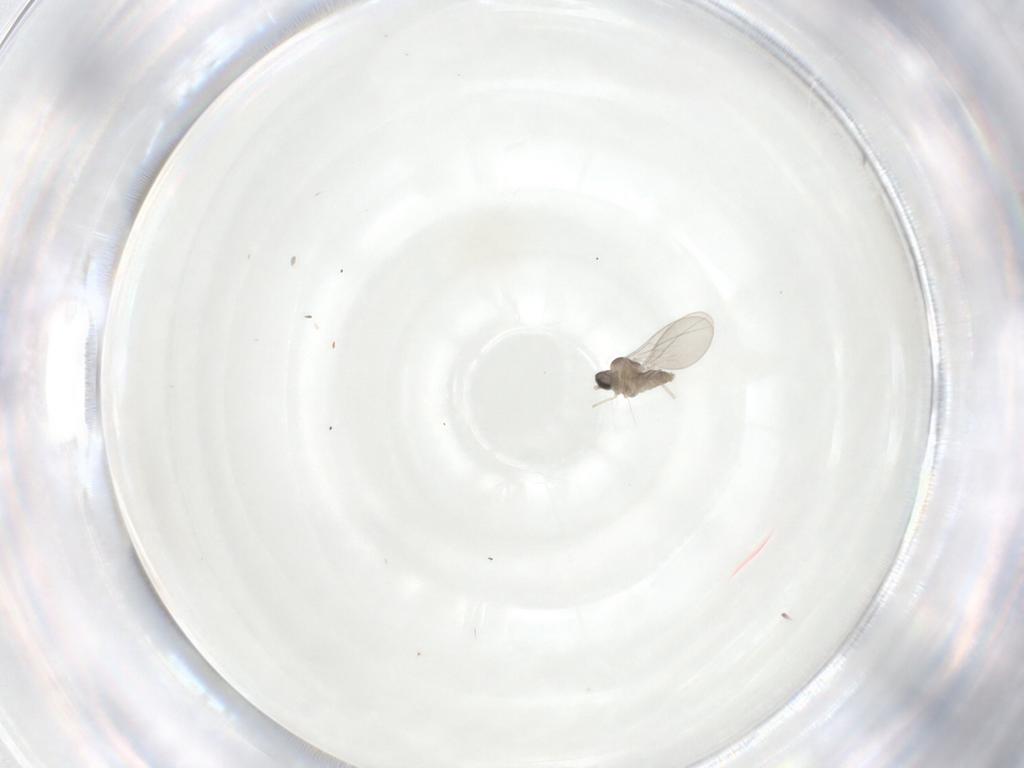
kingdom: Animalia
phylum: Arthropoda
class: Insecta
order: Diptera
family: Cecidomyiidae
